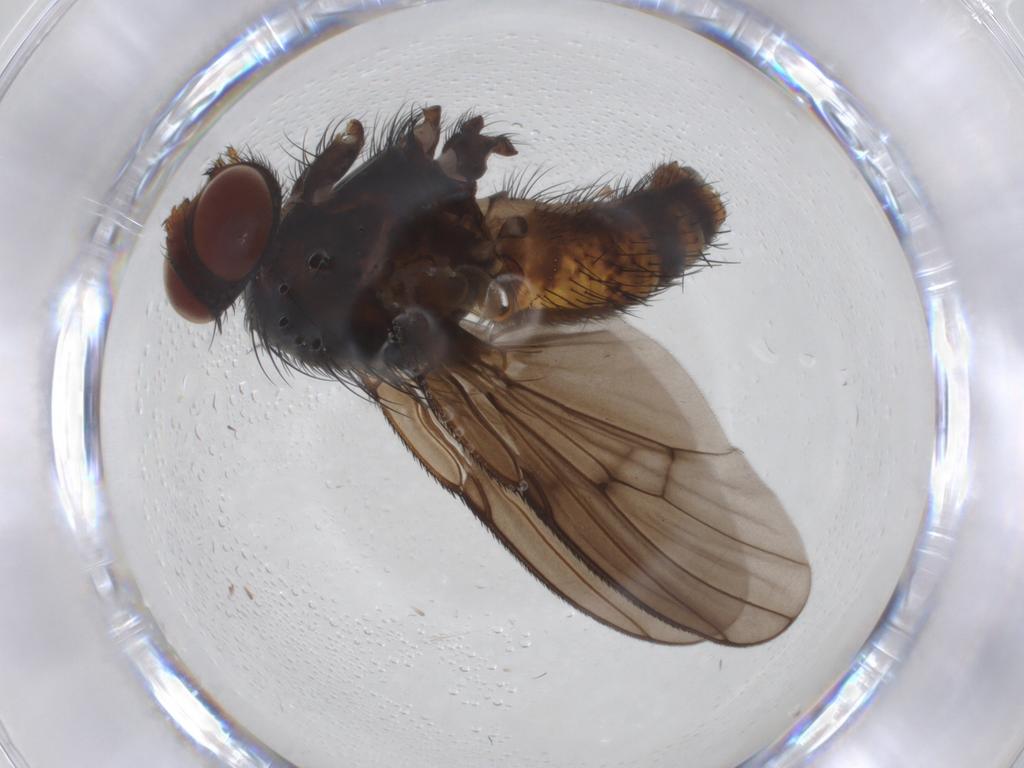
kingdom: Animalia
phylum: Arthropoda
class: Insecta
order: Diptera
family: Muscidae
